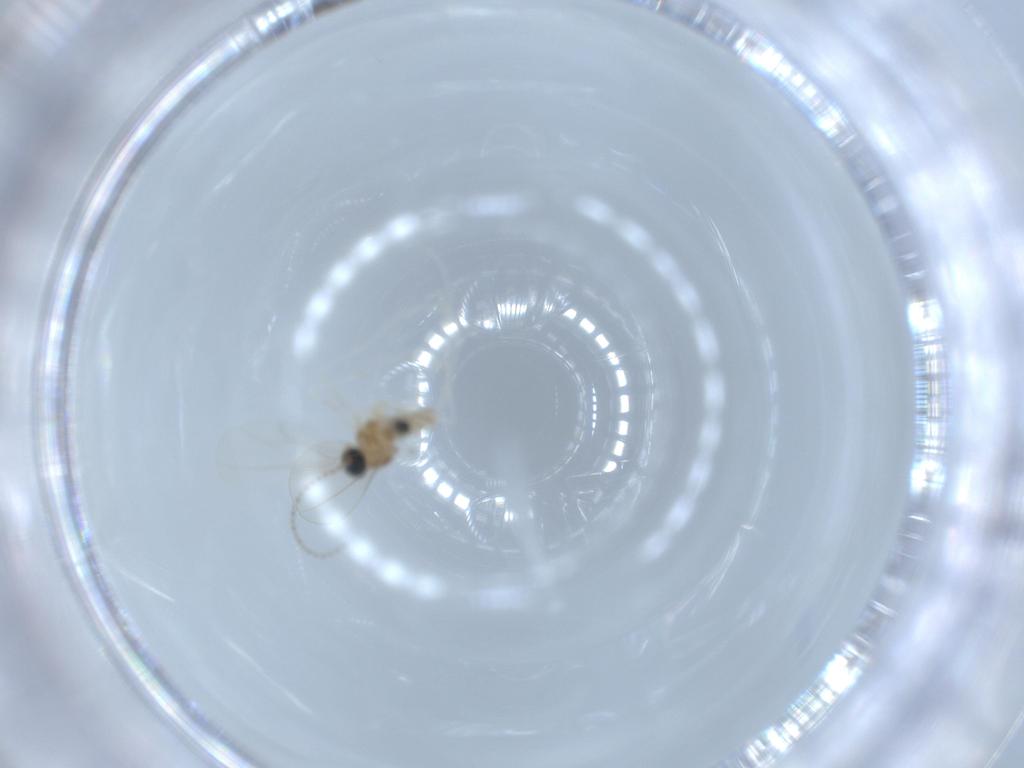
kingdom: Animalia
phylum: Arthropoda
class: Insecta
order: Diptera
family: Cecidomyiidae
